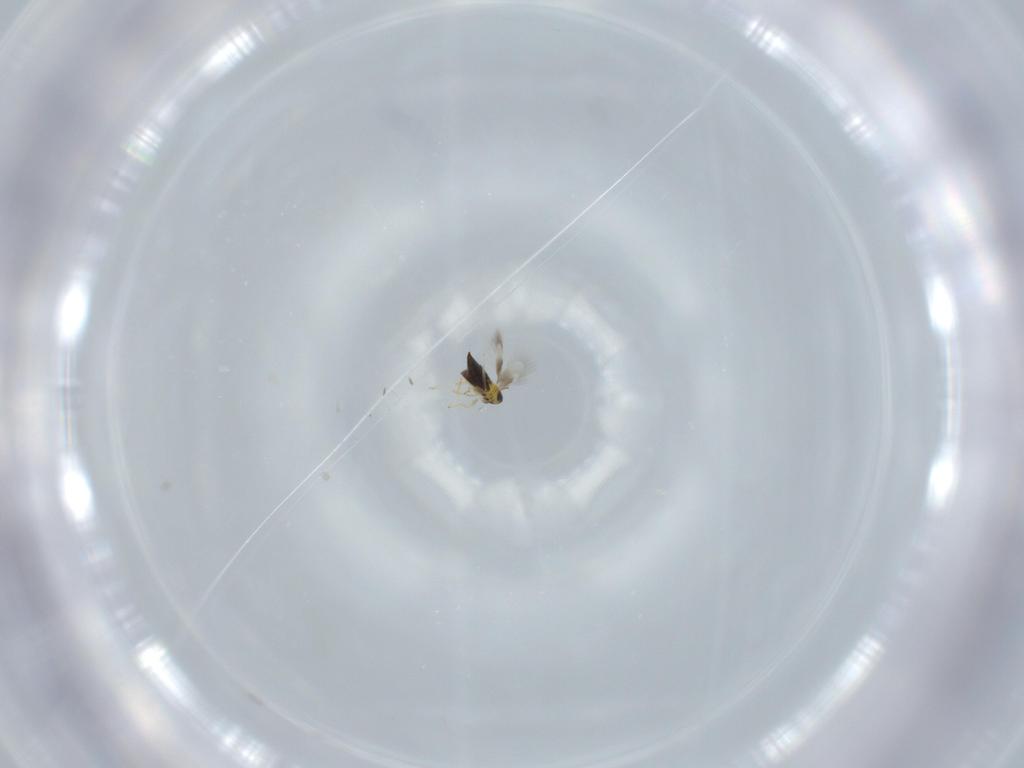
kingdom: Animalia
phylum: Arthropoda
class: Insecta
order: Hymenoptera
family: Signiphoridae
